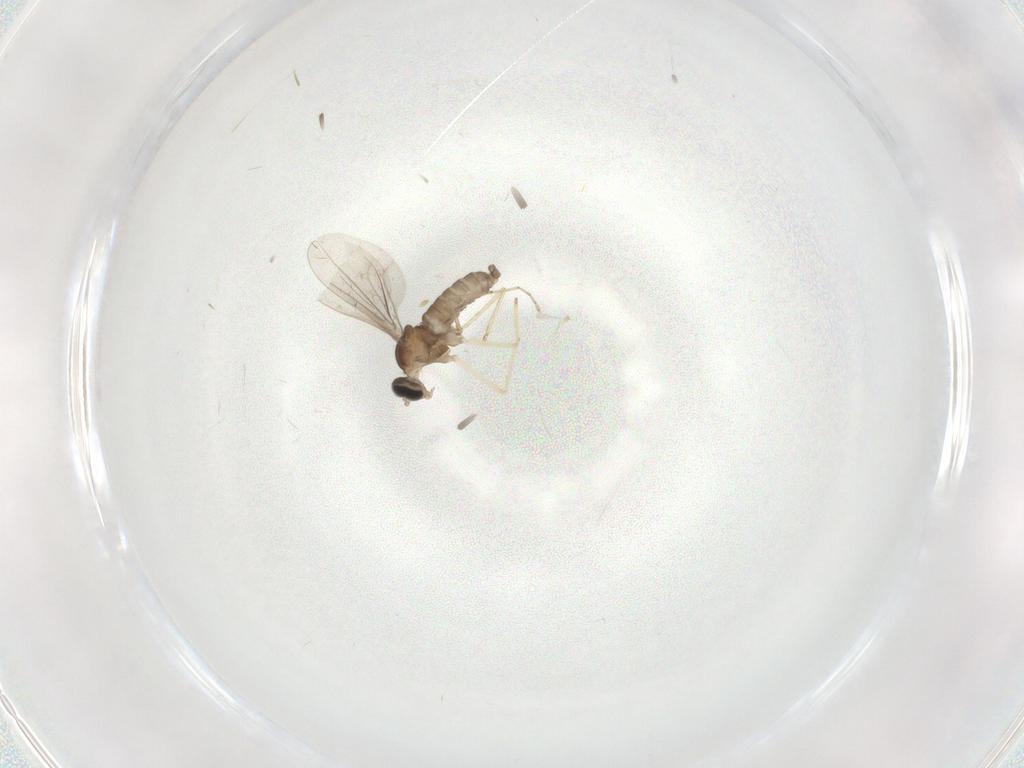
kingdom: Animalia
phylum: Arthropoda
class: Insecta
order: Diptera
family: Cecidomyiidae
